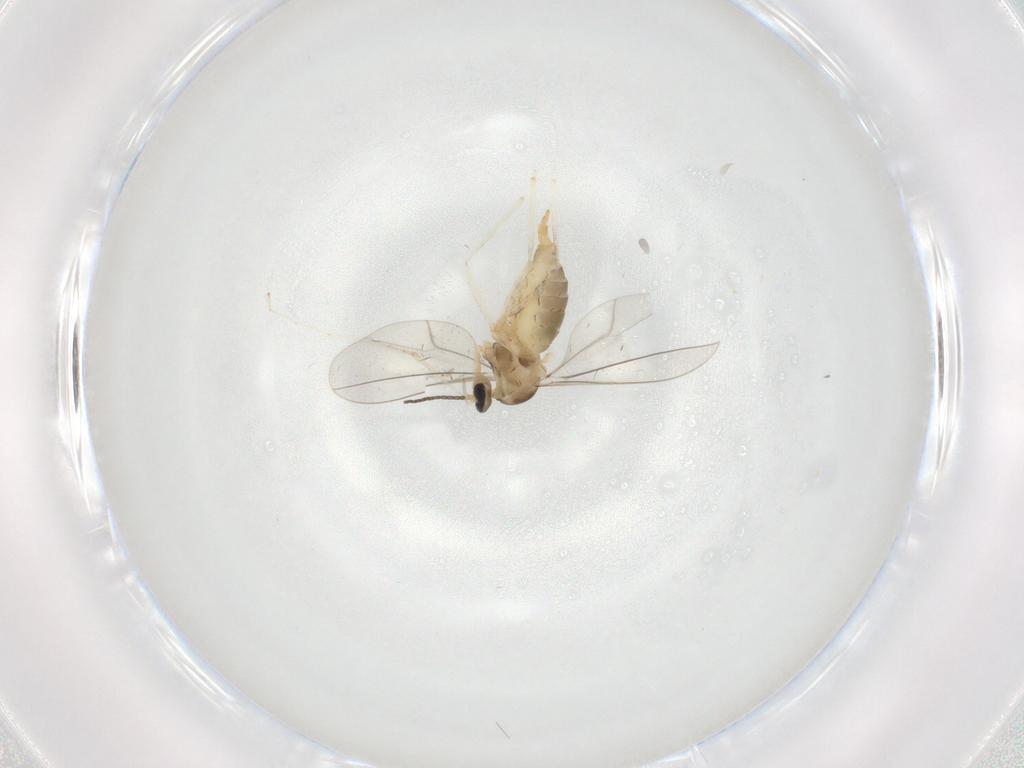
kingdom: Animalia
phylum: Arthropoda
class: Insecta
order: Diptera
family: Cecidomyiidae
